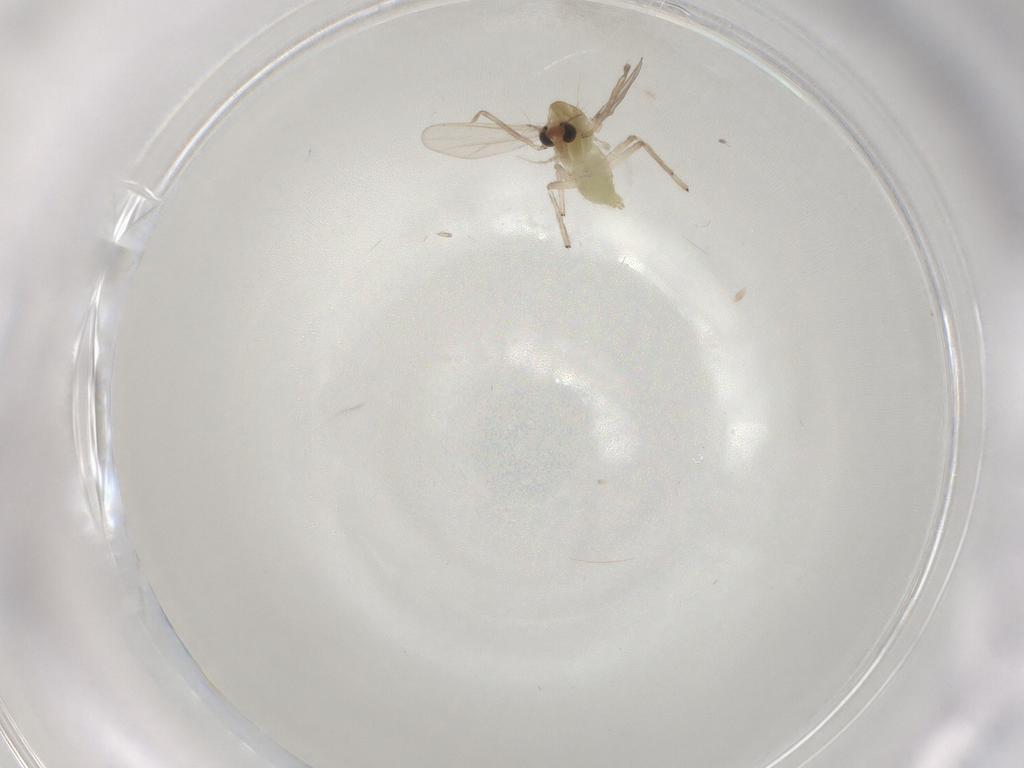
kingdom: Animalia
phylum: Arthropoda
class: Insecta
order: Diptera
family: Chironomidae
